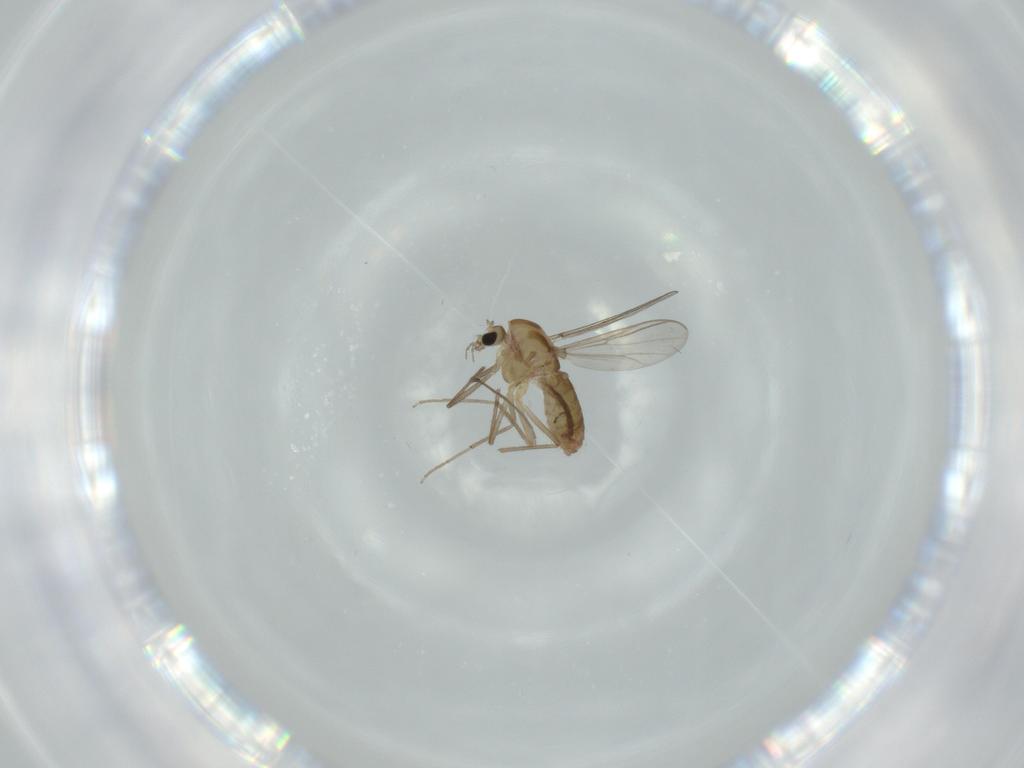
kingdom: Animalia
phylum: Arthropoda
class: Insecta
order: Diptera
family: Chironomidae
